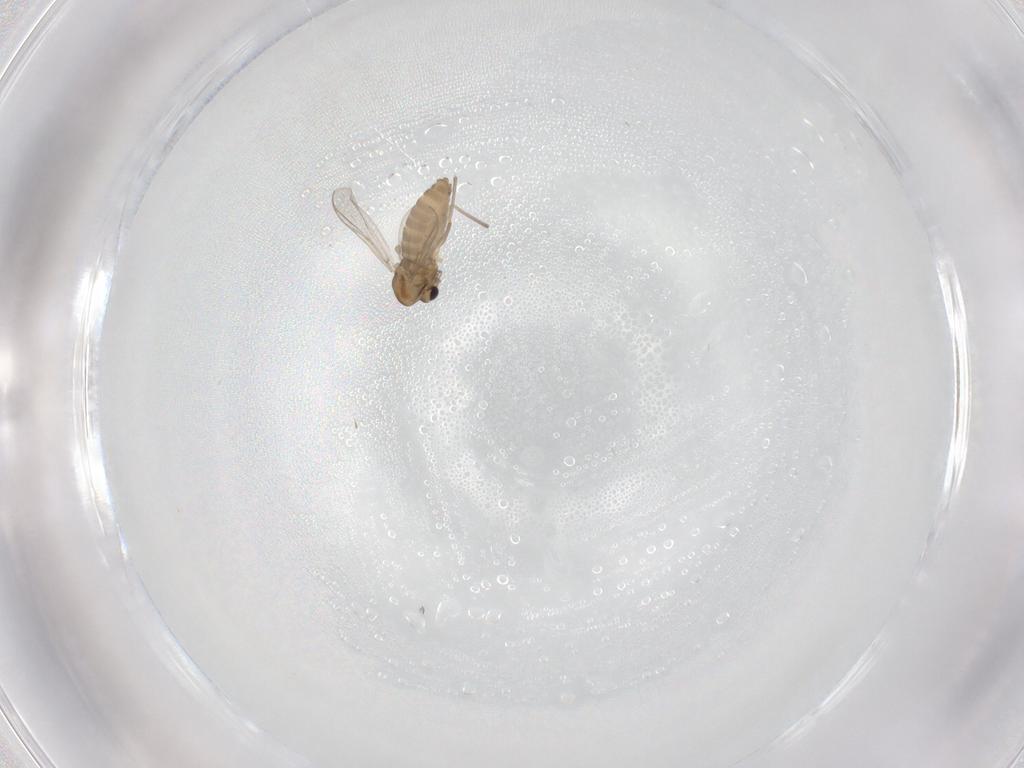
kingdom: Animalia
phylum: Arthropoda
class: Insecta
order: Diptera
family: Chironomidae
